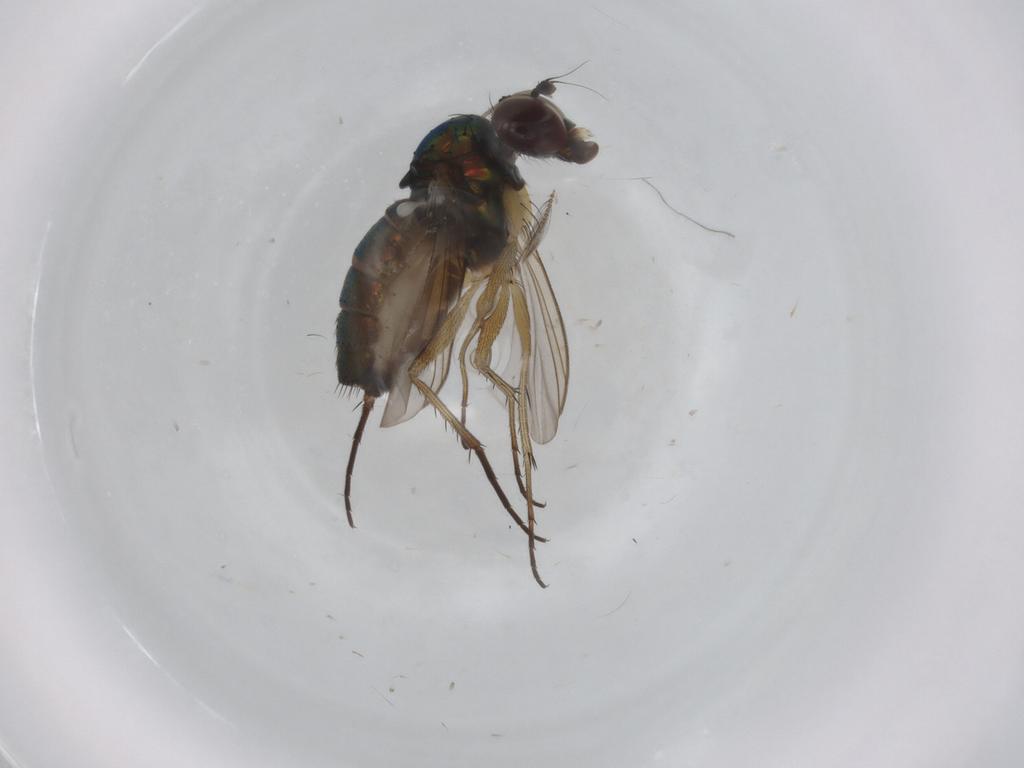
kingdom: Animalia
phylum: Arthropoda
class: Insecta
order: Diptera
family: Dolichopodidae
